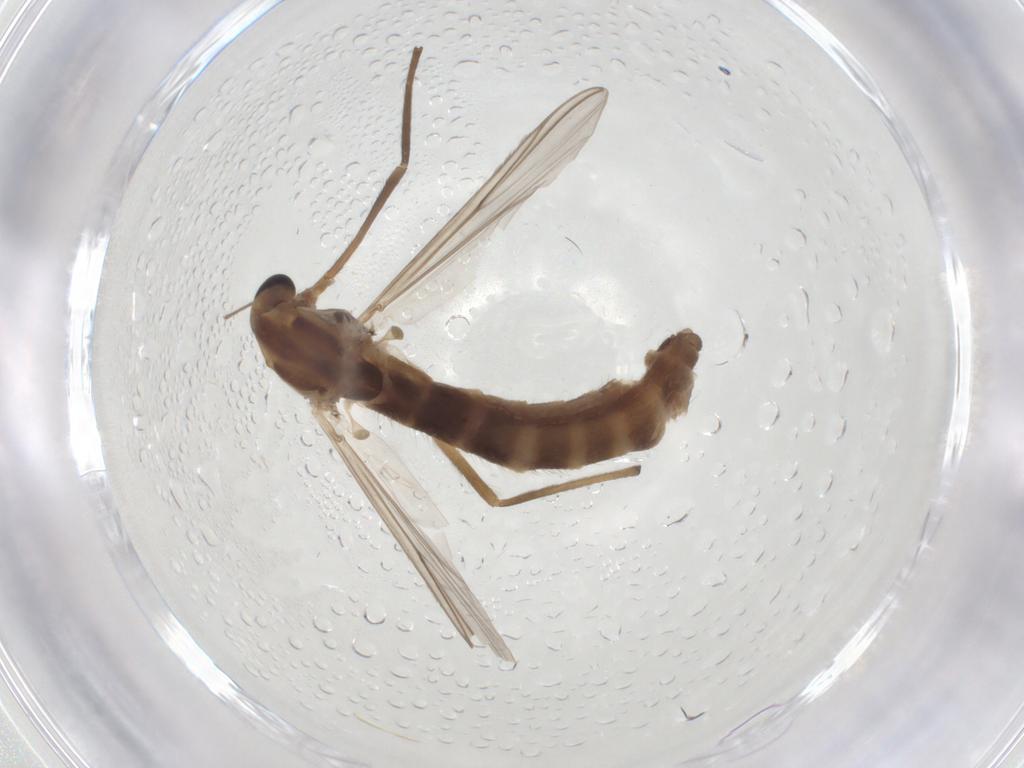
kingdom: Animalia
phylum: Arthropoda
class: Insecta
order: Diptera
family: Chironomidae
